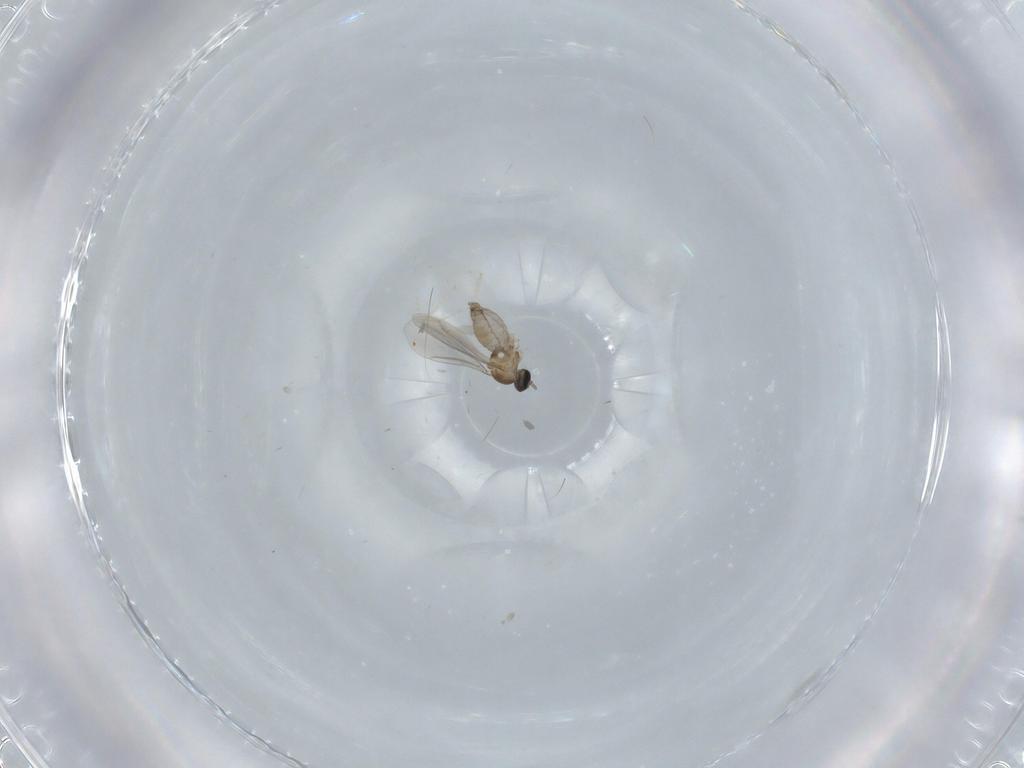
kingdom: Animalia
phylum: Arthropoda
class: Insecta
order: Diptera
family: Cecidomyiidae
